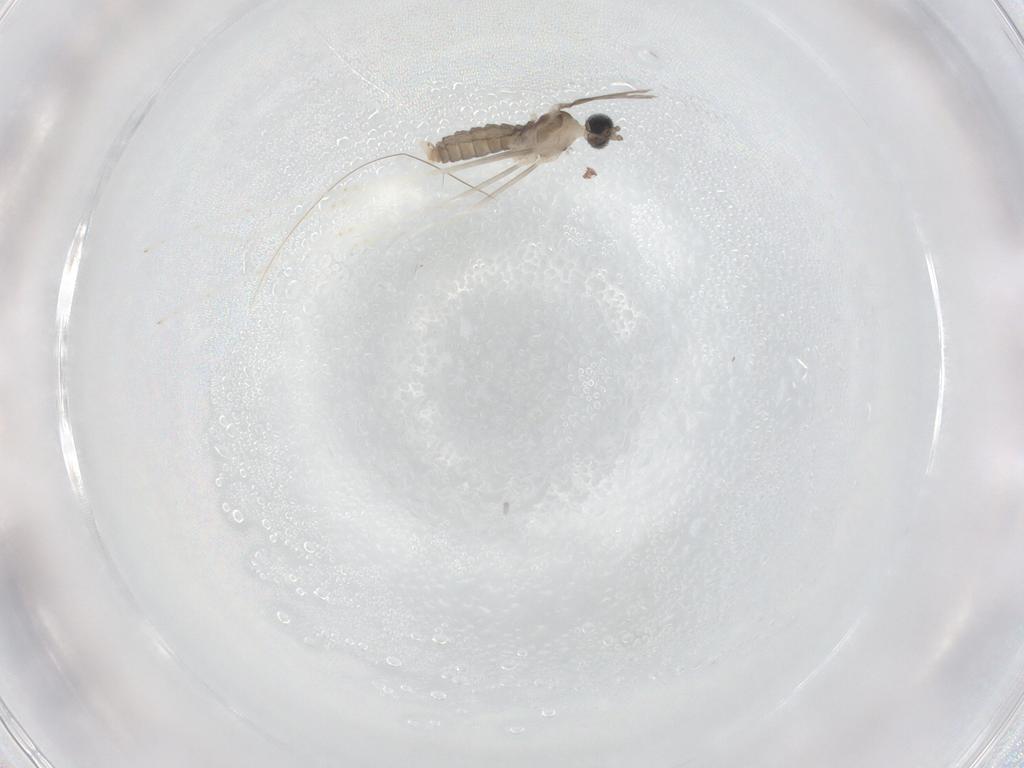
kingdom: Animalia
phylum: Arthropoda
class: Insecta
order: Diptera
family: Cecidomyiidae
